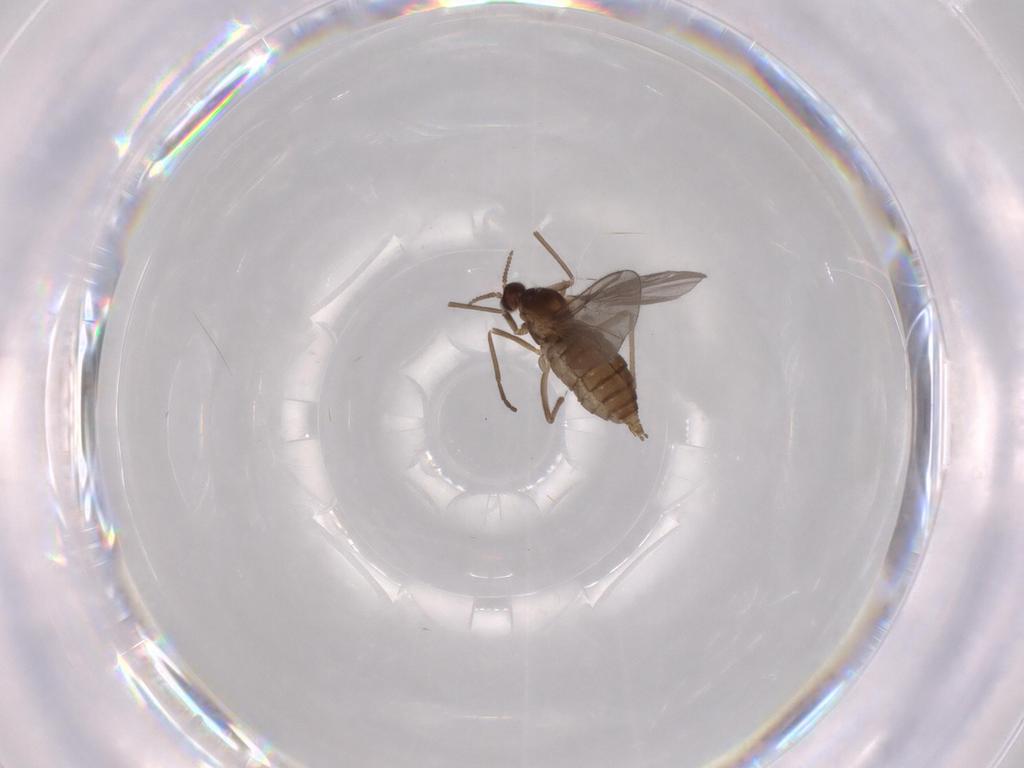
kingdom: Animalia
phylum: Arthropoda
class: Insecta
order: Diptera
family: Cecidomyiidae
